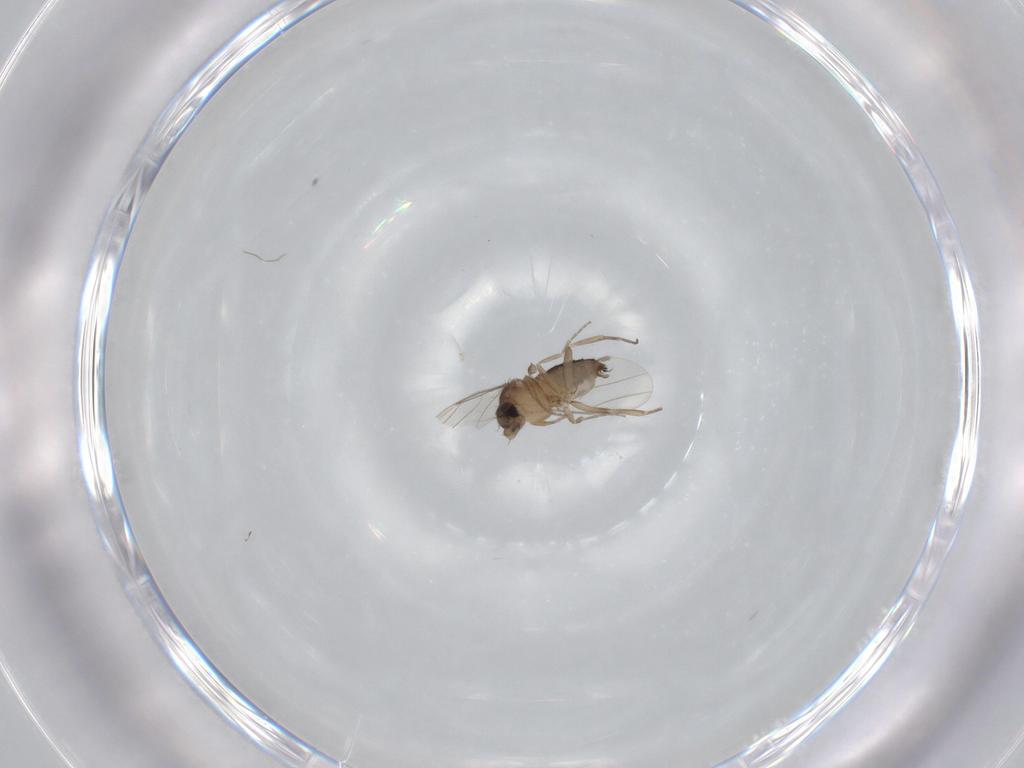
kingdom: Animalia
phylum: Arthropoda
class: Insecta
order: Diptera
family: Phoridae
